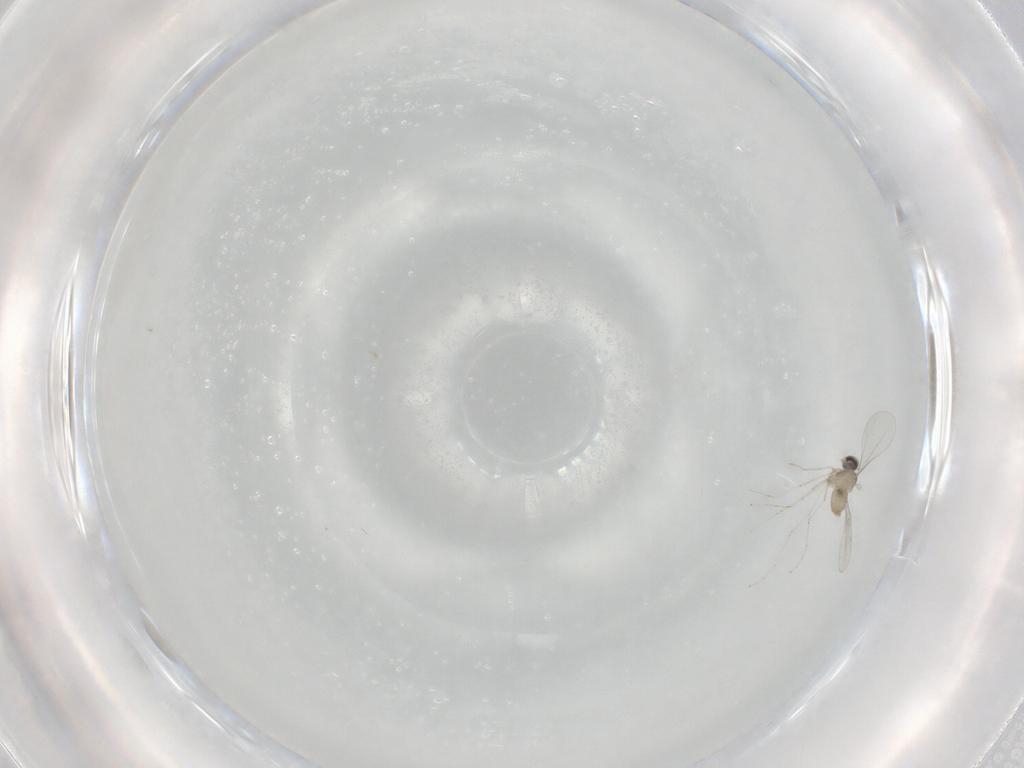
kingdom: Animalia
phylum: Arthropoda
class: Insecta
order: Diptera
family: Cecidomyiidae
